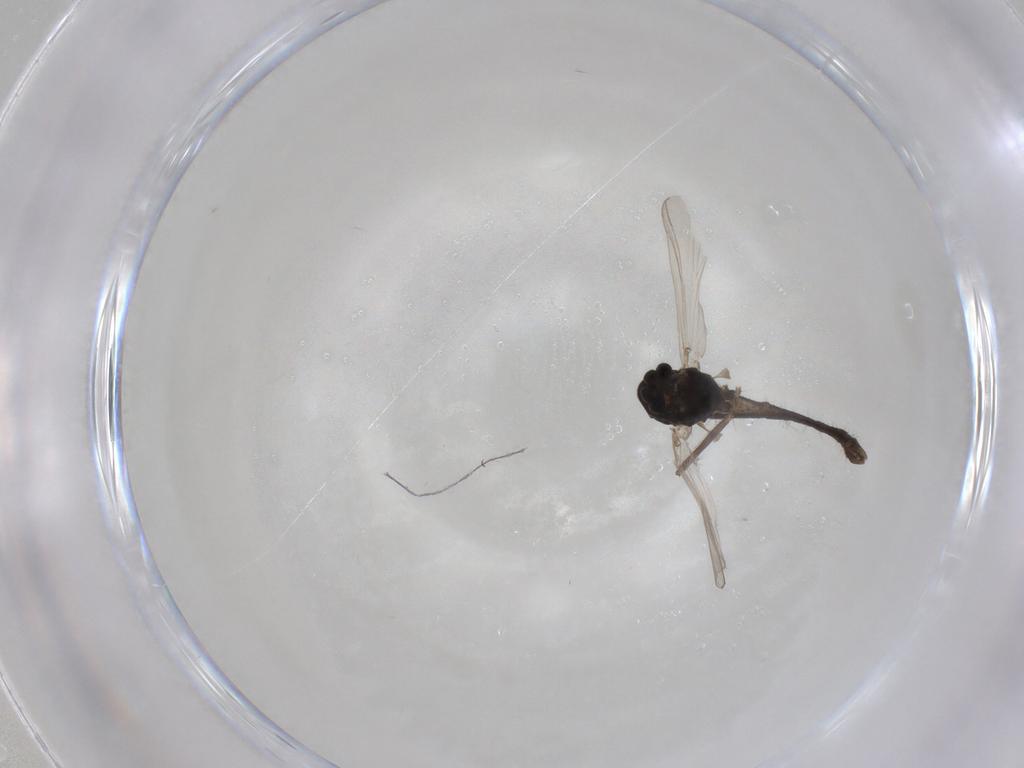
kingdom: Animalia
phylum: Arthropoda
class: Insecta
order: Diptera
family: Chironomidae
